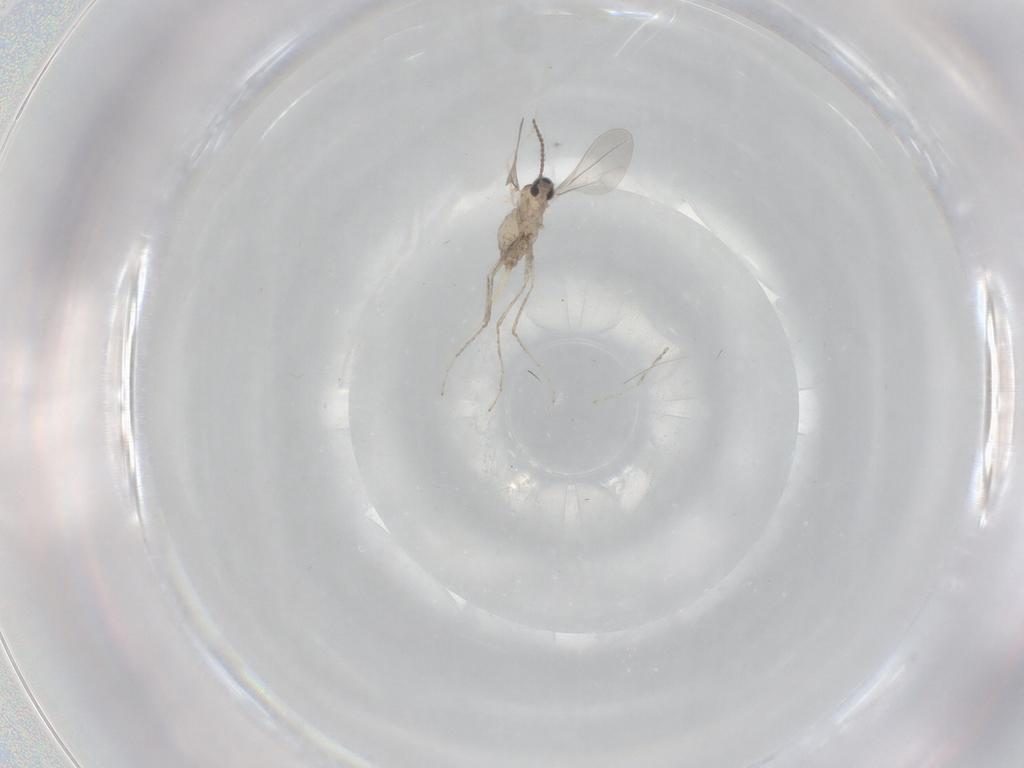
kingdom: Animalia
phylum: Arthropoda
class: Insecta
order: Diptera
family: Cecidomyiidae
